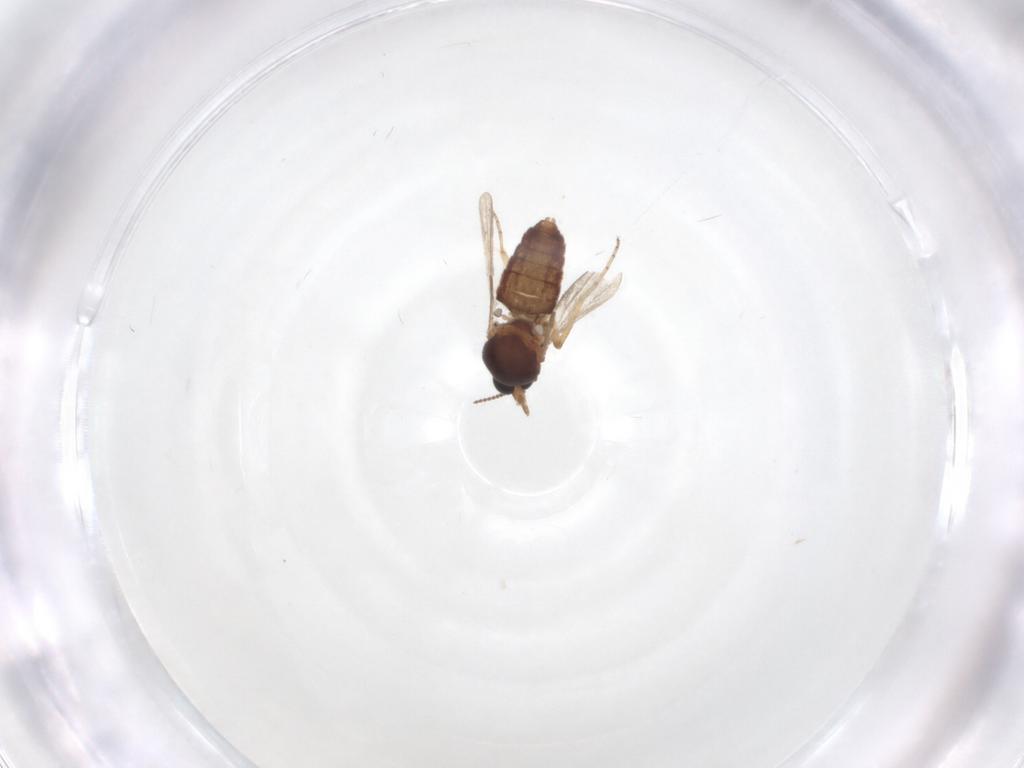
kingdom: Animalia
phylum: Arthropoda
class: Insecta
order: Diptera
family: Ceratopogonidae
